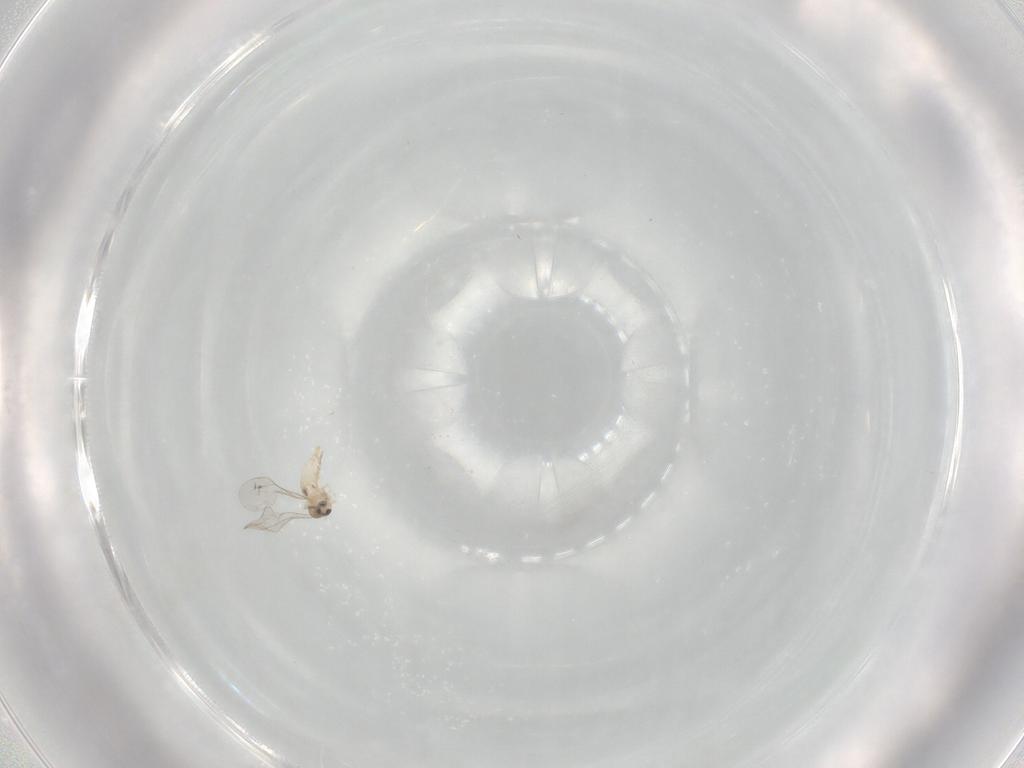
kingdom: Animalia
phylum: Arthropoda
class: Insecta
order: Diptera
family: Cecidomyiidae
